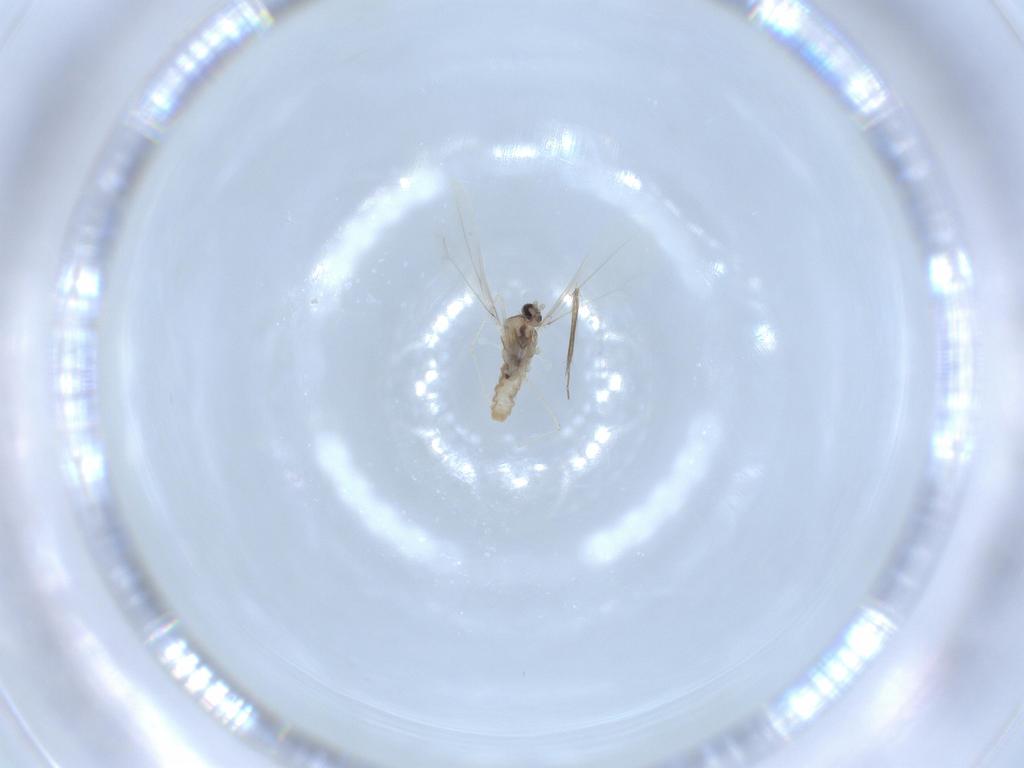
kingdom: Animalia
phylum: Arthropoda
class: Insecta
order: Diptera
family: Cecidomyiidae
